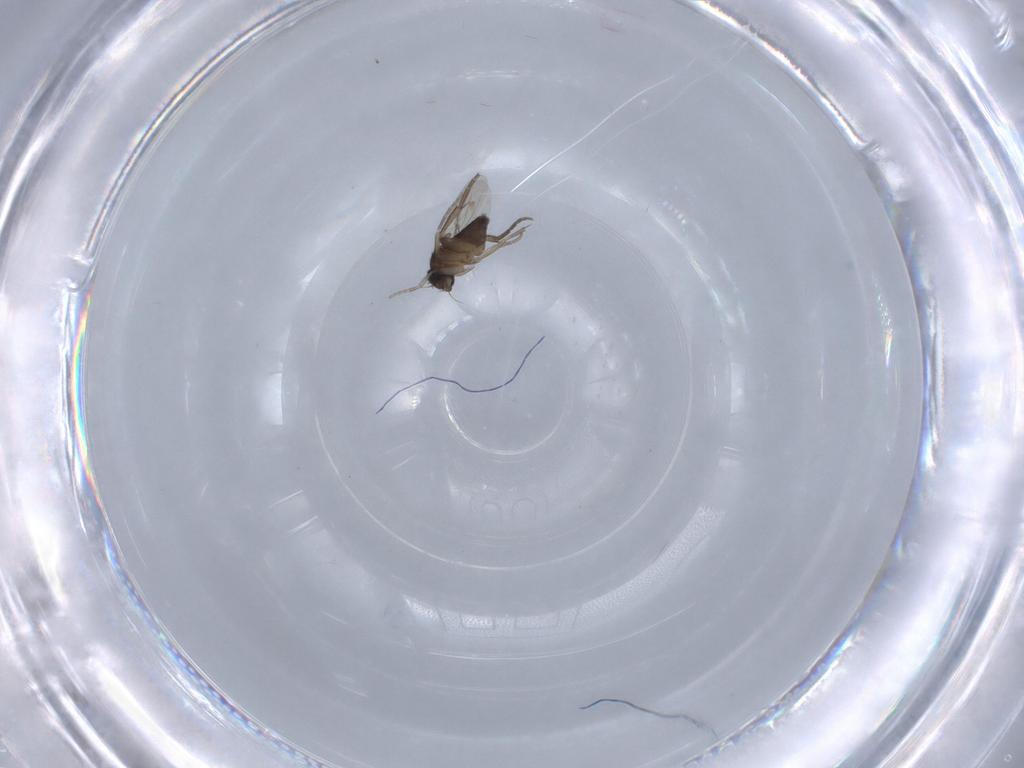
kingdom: Animalia
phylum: Arthropoda
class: Insecta
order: Diptera
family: Phoridae
